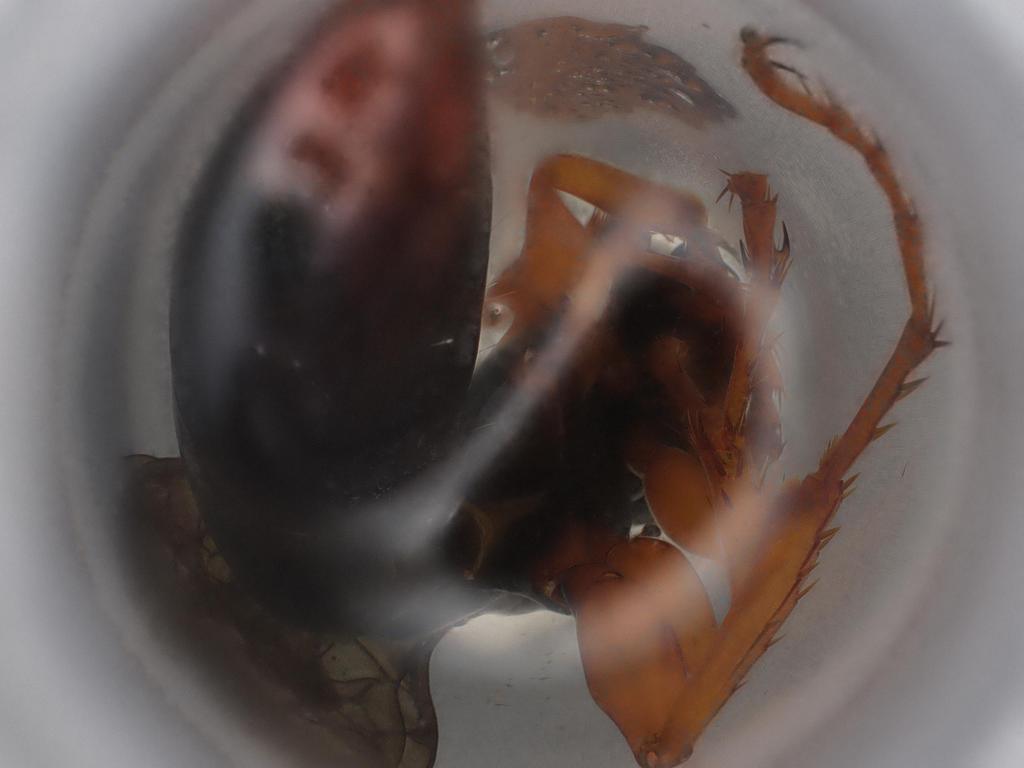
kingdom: Animalia
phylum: Arthropoda
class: Insecta
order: Hymenoptera
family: Crabronidae
